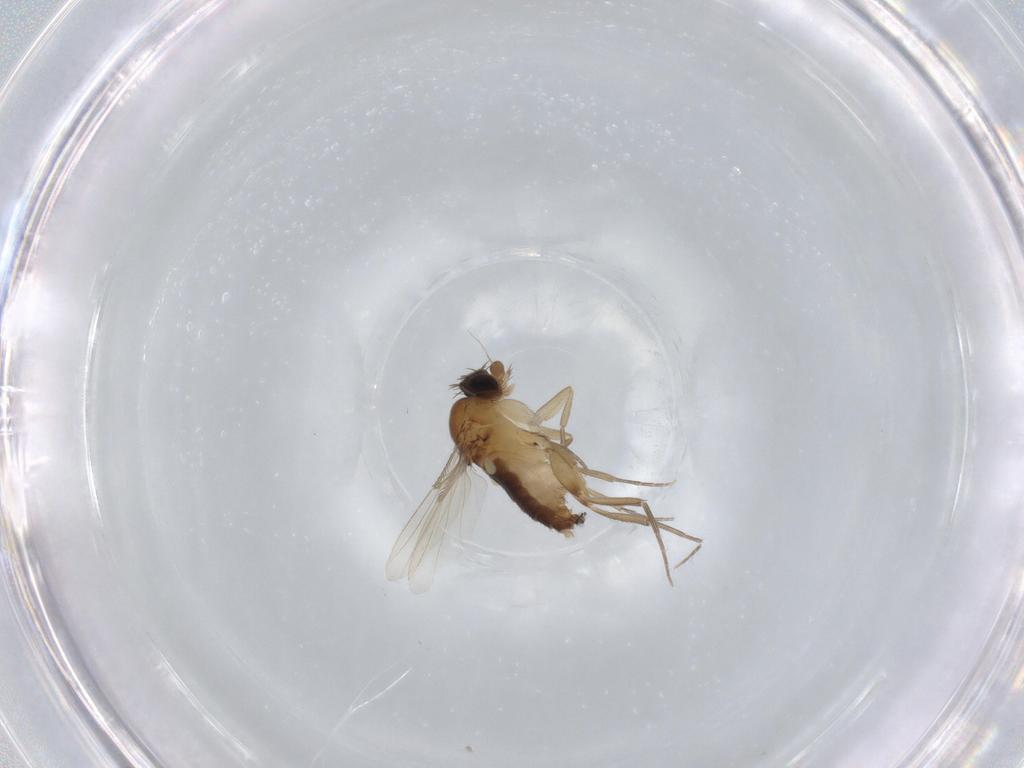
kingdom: Animalia
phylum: Arthropoda
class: Insecta
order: Diptera
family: Phoridae
